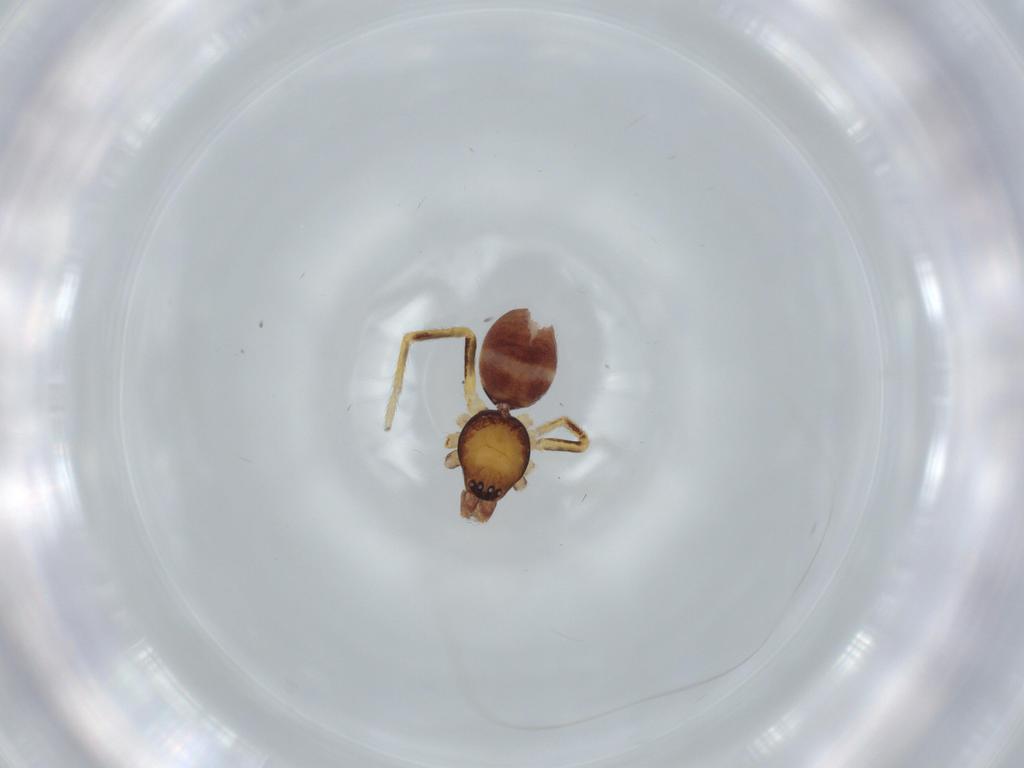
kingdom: Animalia
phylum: Arthropoda
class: Arachnida
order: Araneae
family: Corinnidae
